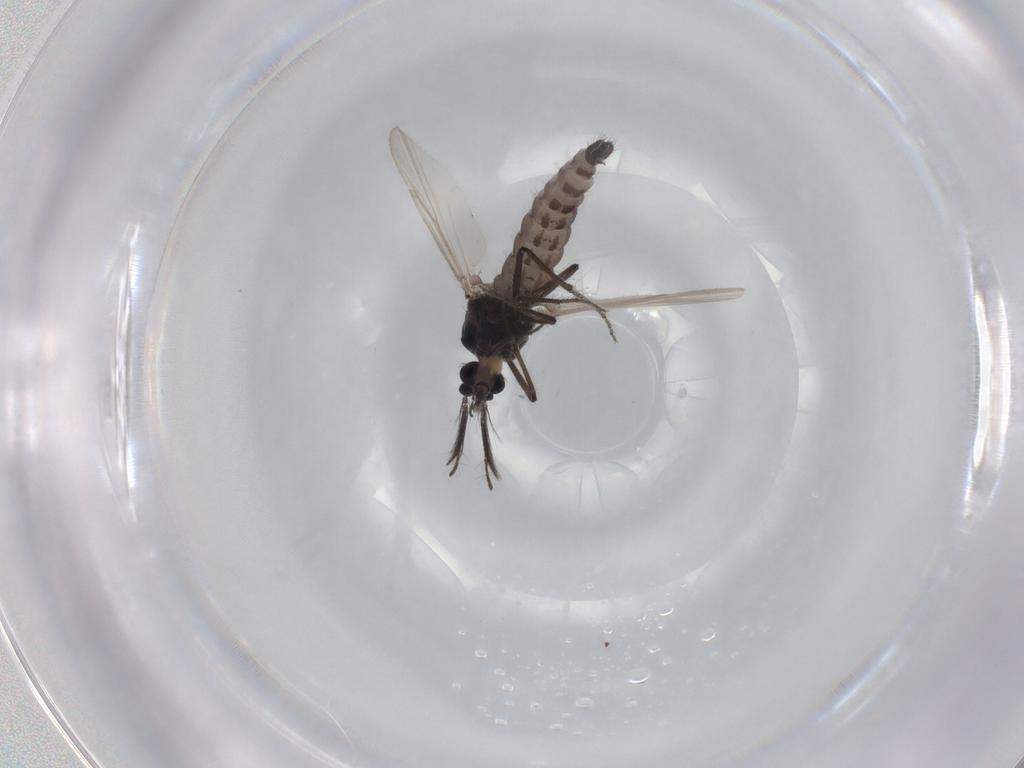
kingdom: Animalia
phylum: Arthropoda
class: Insecta
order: Diptera
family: Ceratopogonidae
